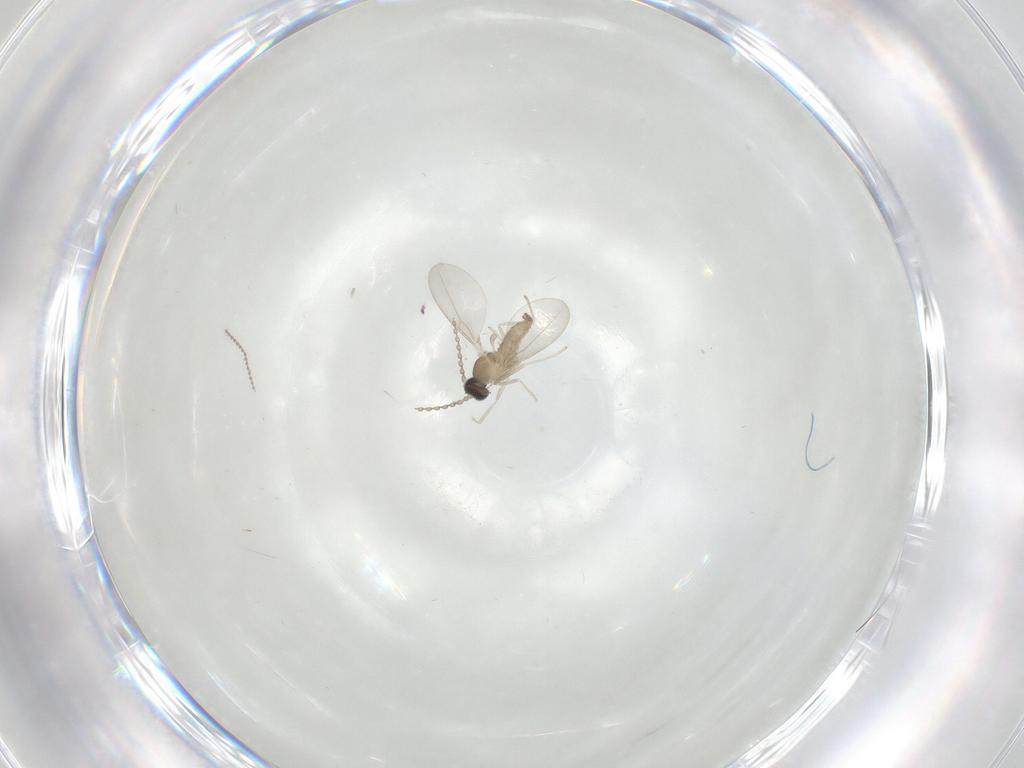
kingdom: Animalia
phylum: Arthropoda
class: Insecta
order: Diptera
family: Cecidomyiidae
